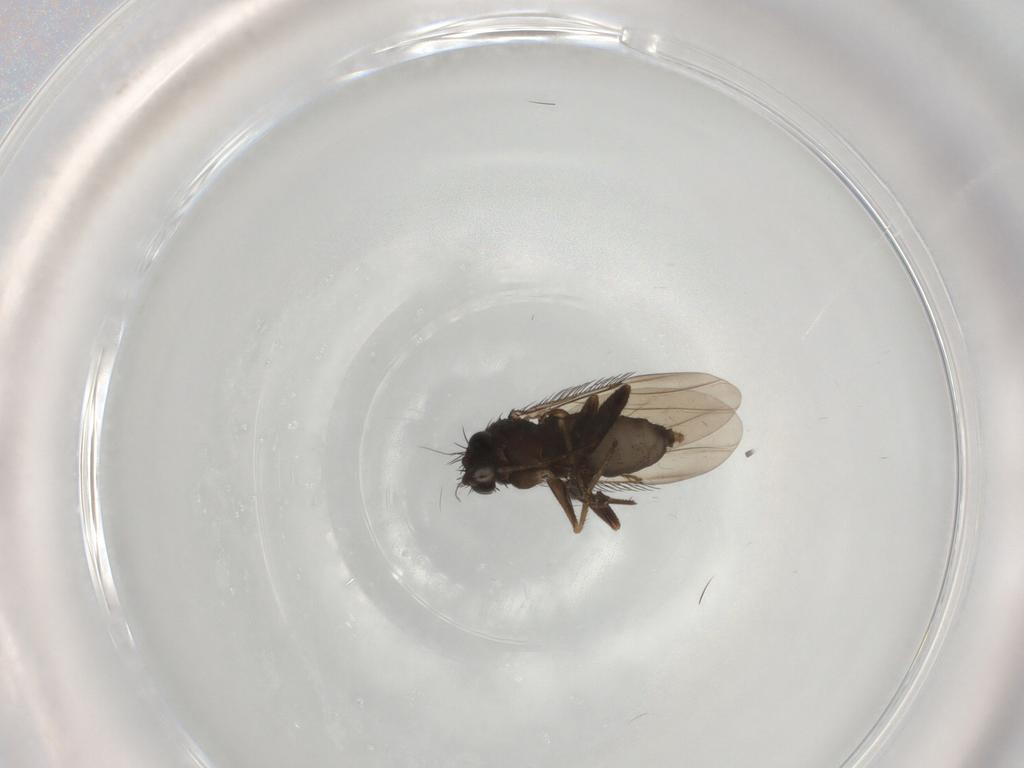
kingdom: Animalia
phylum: Arthropoda
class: Insecta
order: Diptera
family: Chironomidae
